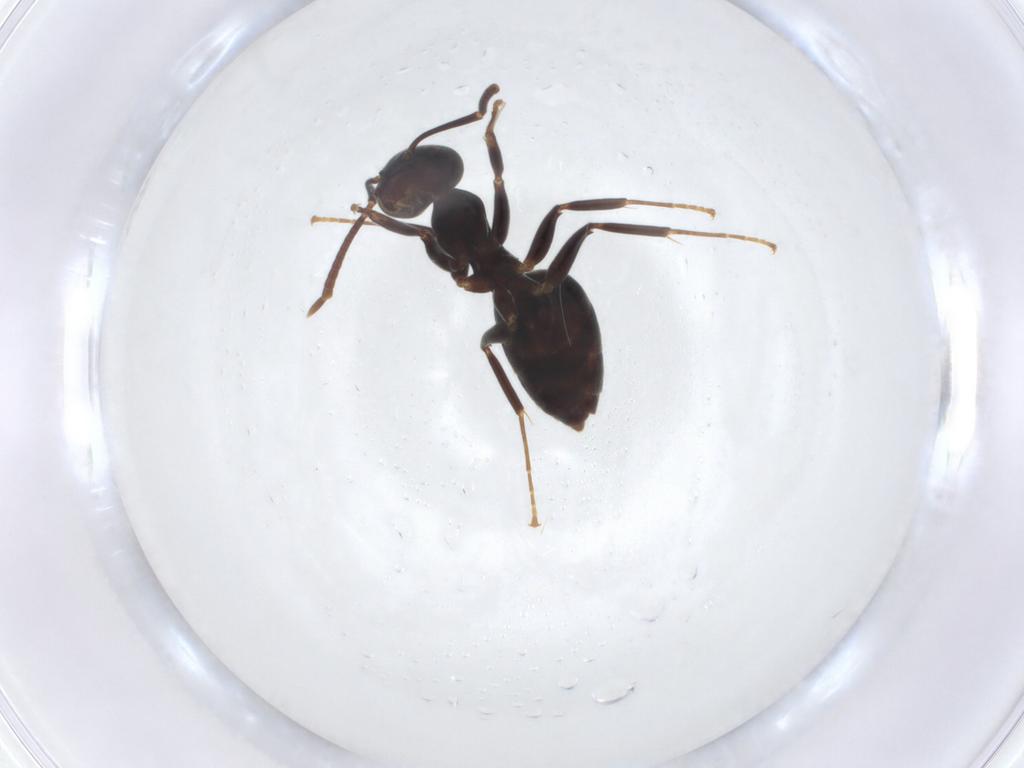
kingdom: Animalia
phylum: Arthropoda
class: Insecta
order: Hymenoptera
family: Formicidae
